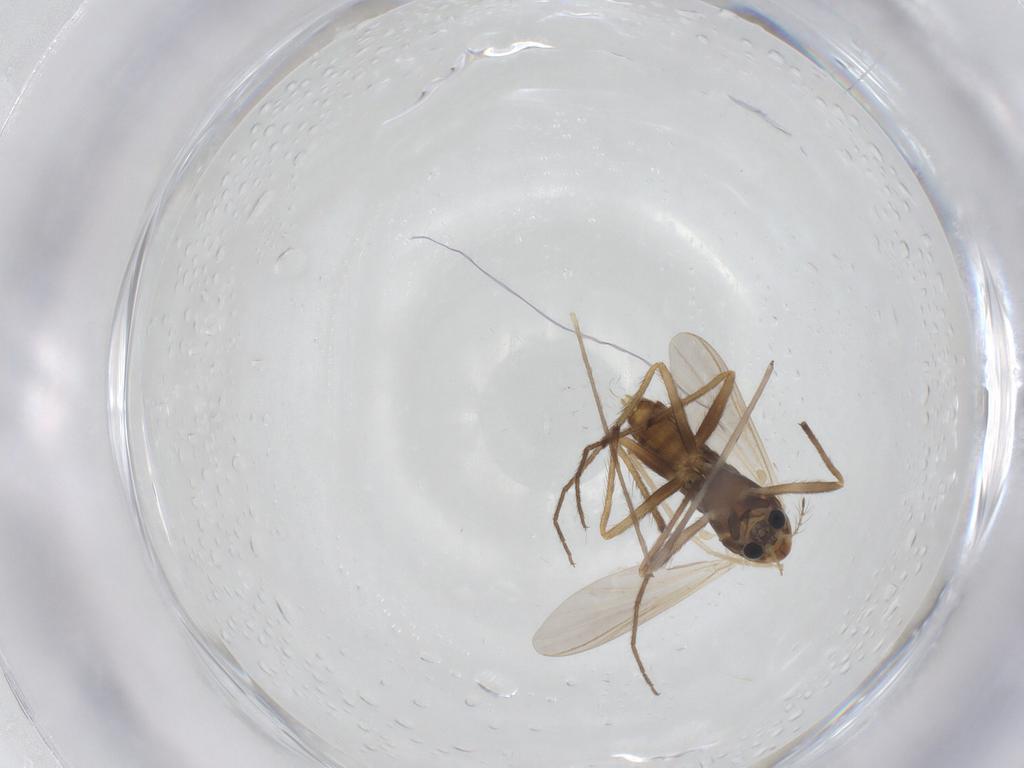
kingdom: Animalia
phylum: Arthropoda
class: Insecta
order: Diptera
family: Chironomidae
